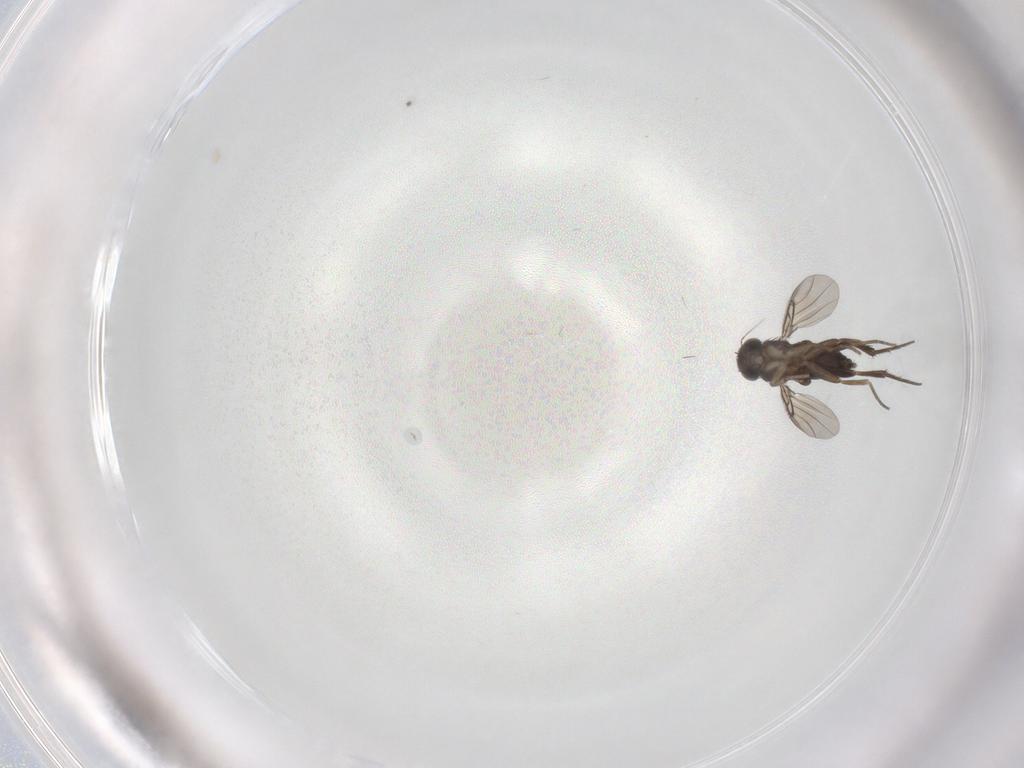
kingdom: Animalia
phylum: Arthropoda
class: Insecta
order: Diptera
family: Phoridae
